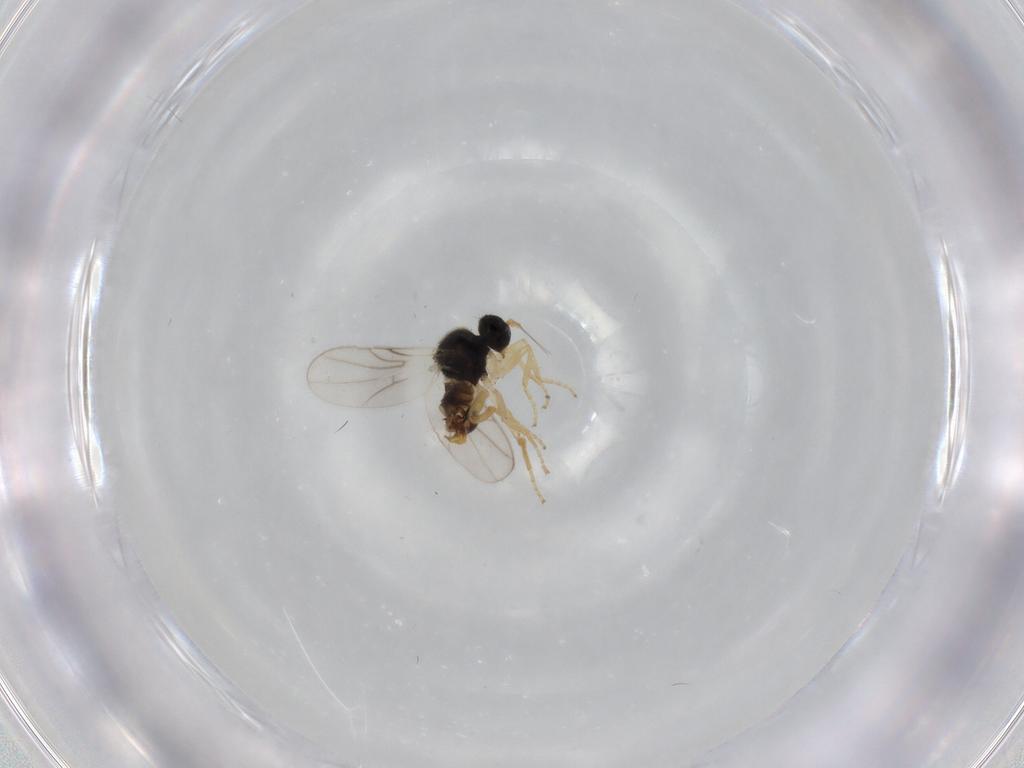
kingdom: Animalia
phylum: Arthropoda
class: Insecta
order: Diptera
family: Hybotidae
